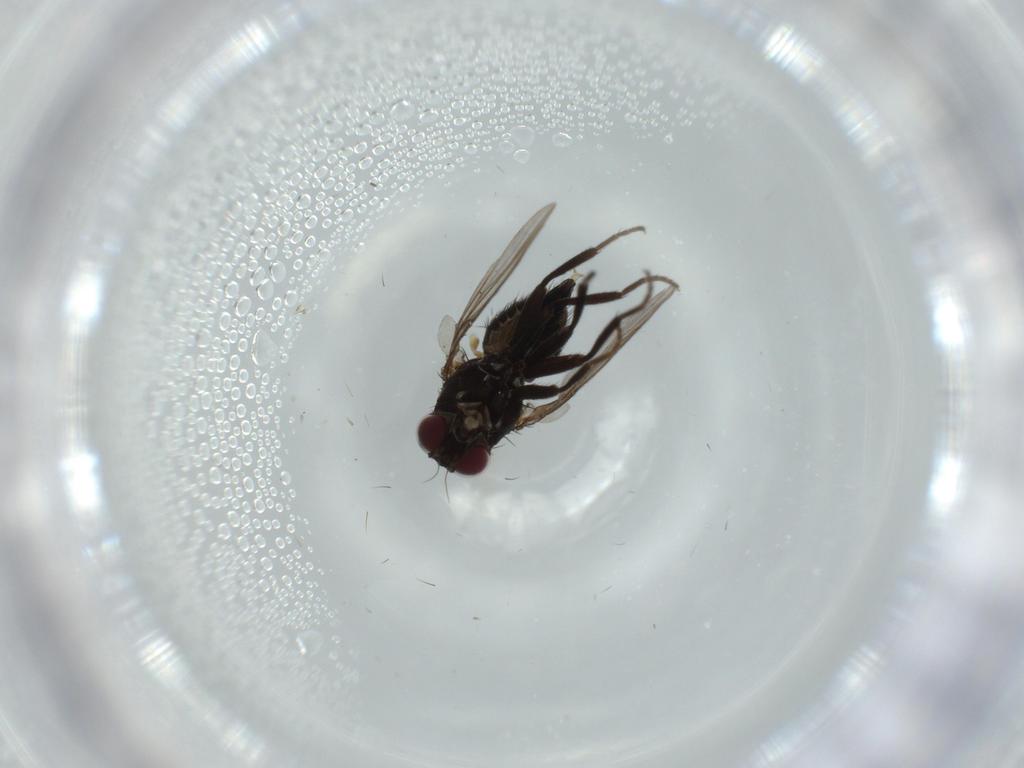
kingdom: Animalia
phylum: Arthropoda
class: Insecta
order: Diptera
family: Agromyzidae
